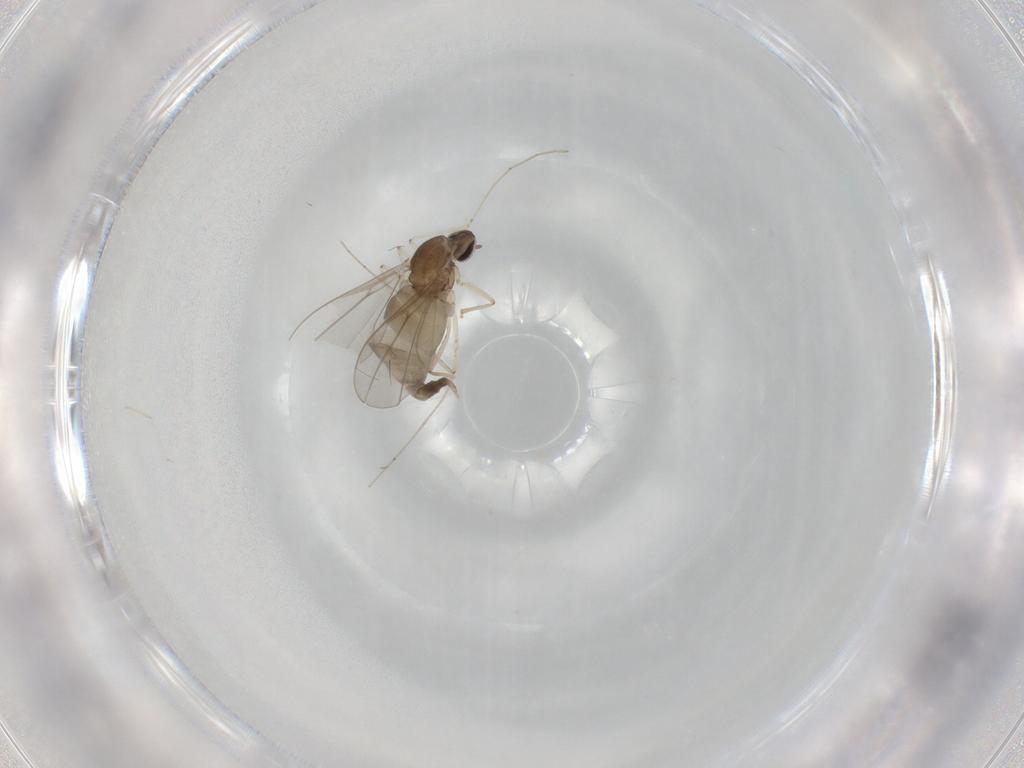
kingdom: Animalia
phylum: Arthropoda
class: Insecta
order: Diptera
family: Cecidomyiidae
